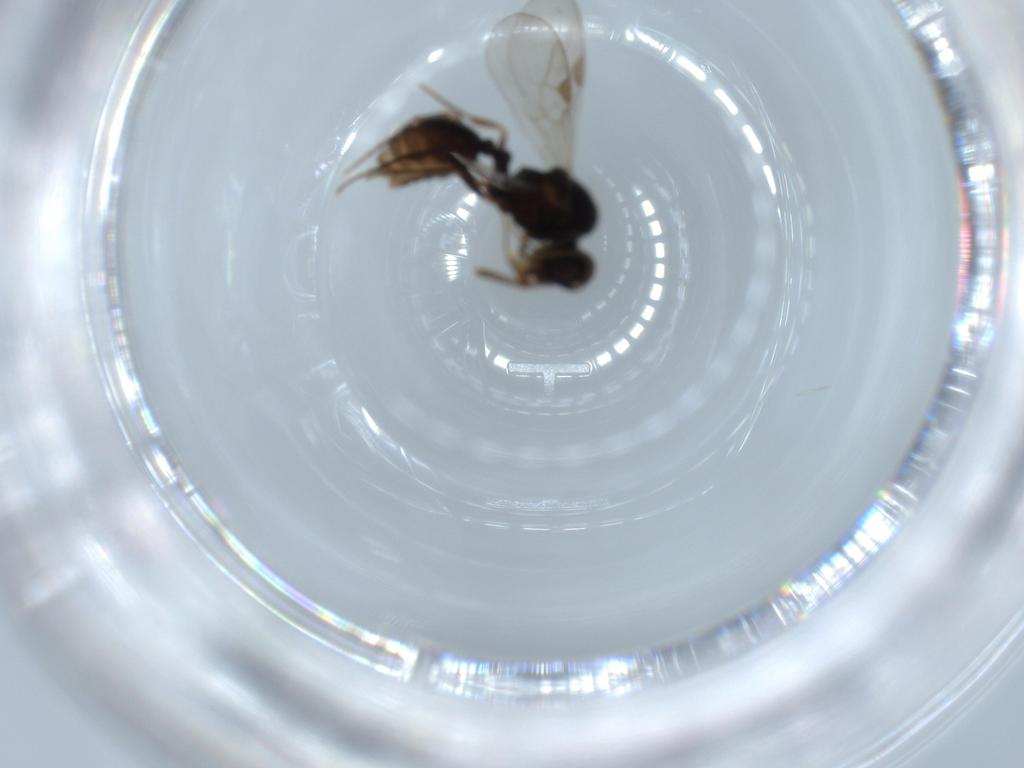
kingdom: Animalia
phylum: Arthropoda
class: Insecta
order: Hymenoptera
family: Formicidae
